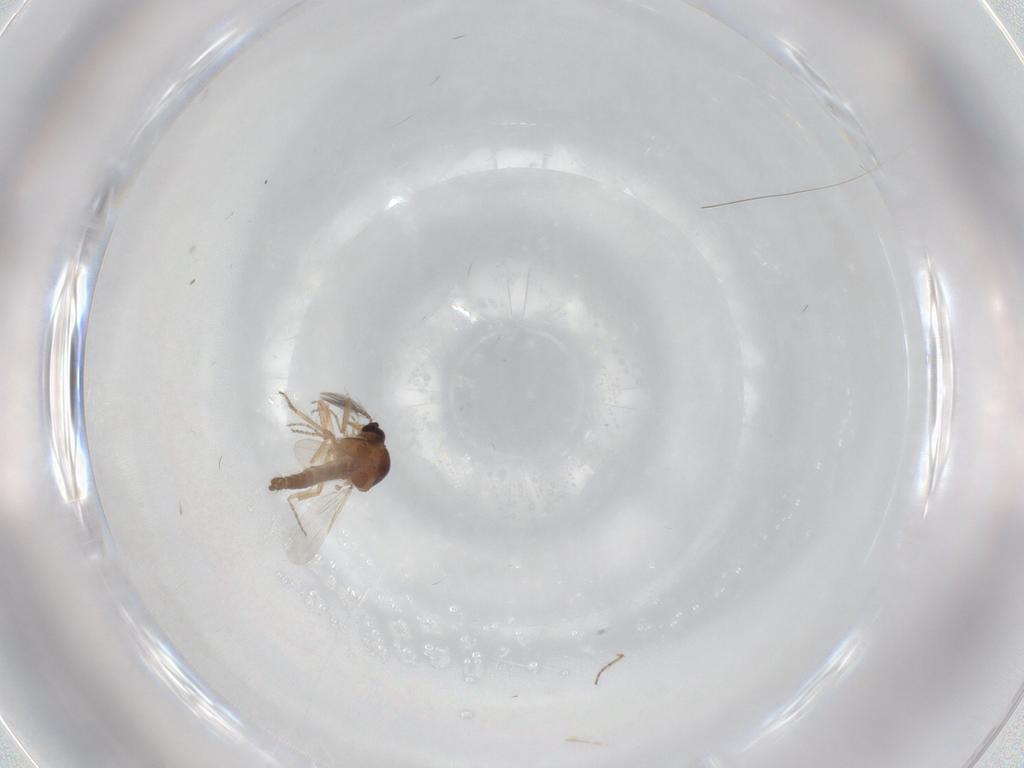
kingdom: Animalia
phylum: Arthropoda
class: Insecta
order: Diptera
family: Ceratopogonidae
